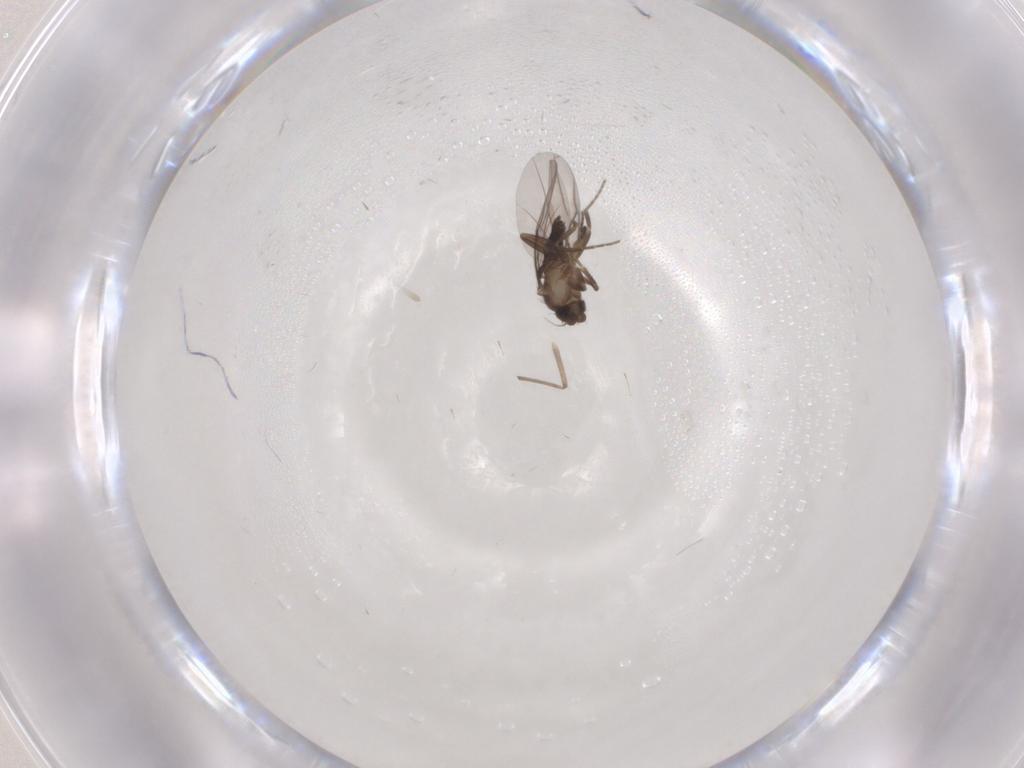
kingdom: Animalia
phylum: Arthropoda
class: Insecta
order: Diptera
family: Chironomidae
